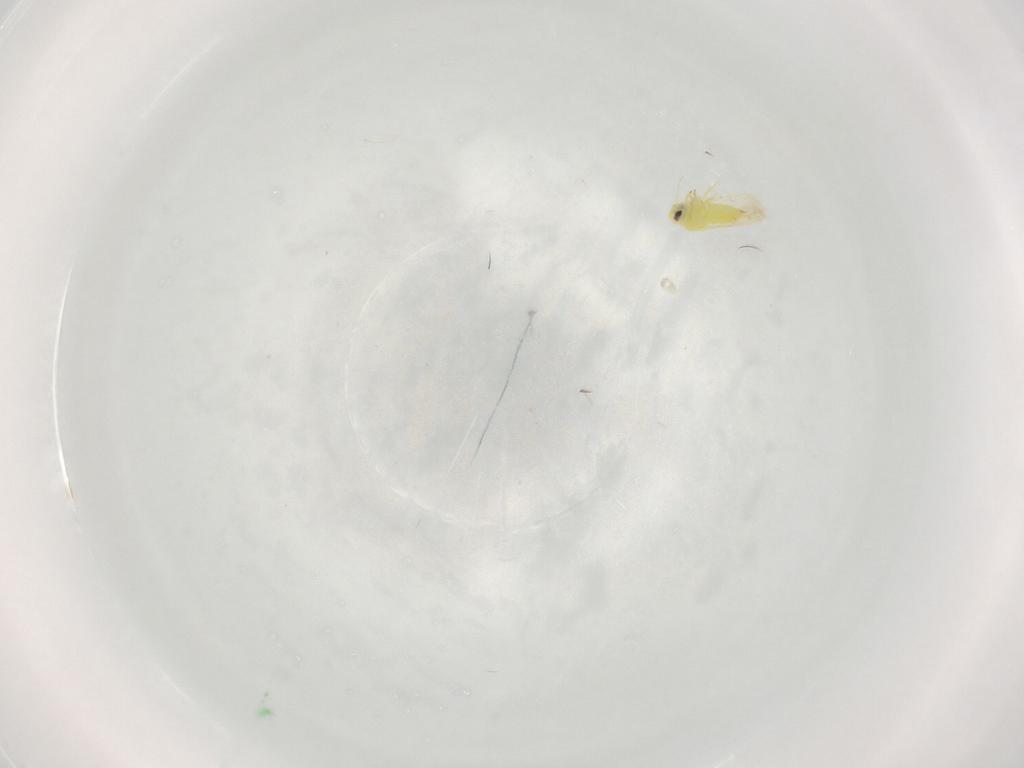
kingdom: Animalia
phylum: Arthropoda
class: Insecta
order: Hemiptera
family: Aleyrodidae
